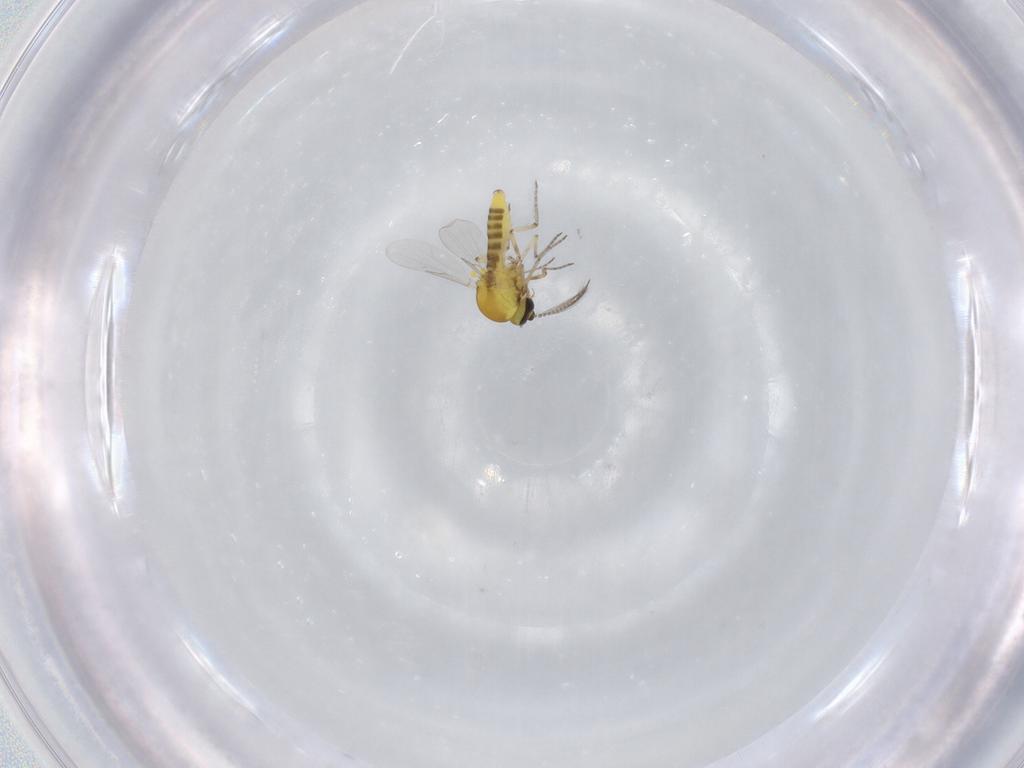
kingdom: Animalia
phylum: Arthropoda
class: Insecta
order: Diptera
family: Ceratopogonidae
